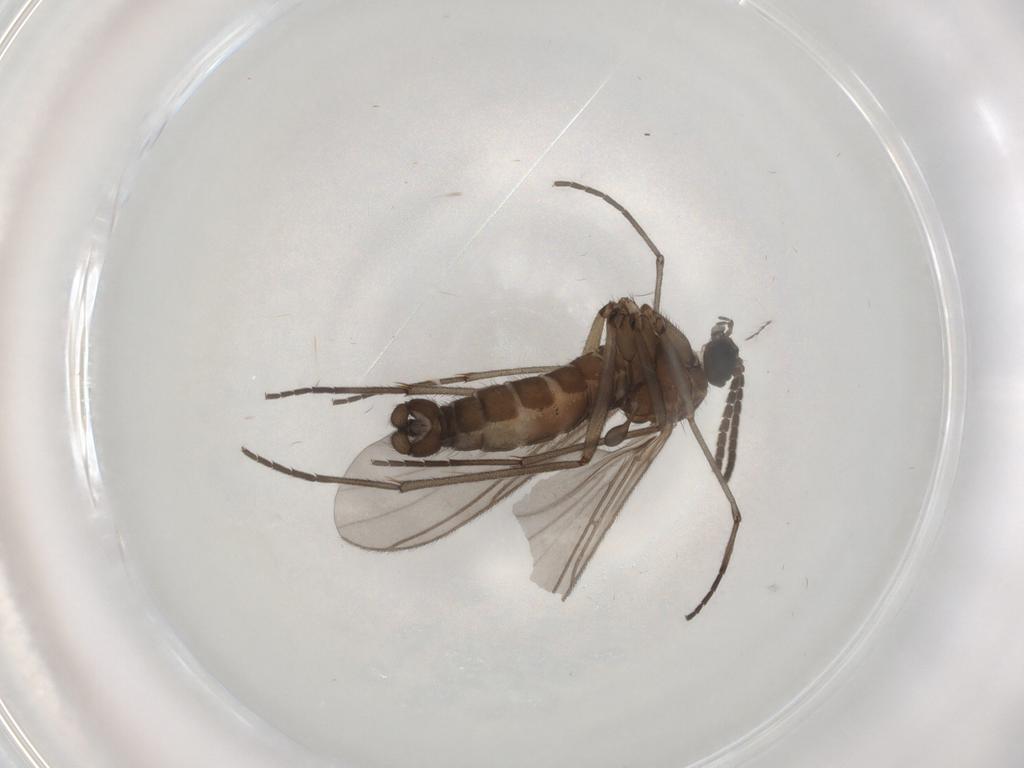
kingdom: Animalia
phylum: Arthropoda
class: Insecta
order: Diptera
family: Sciaridae
